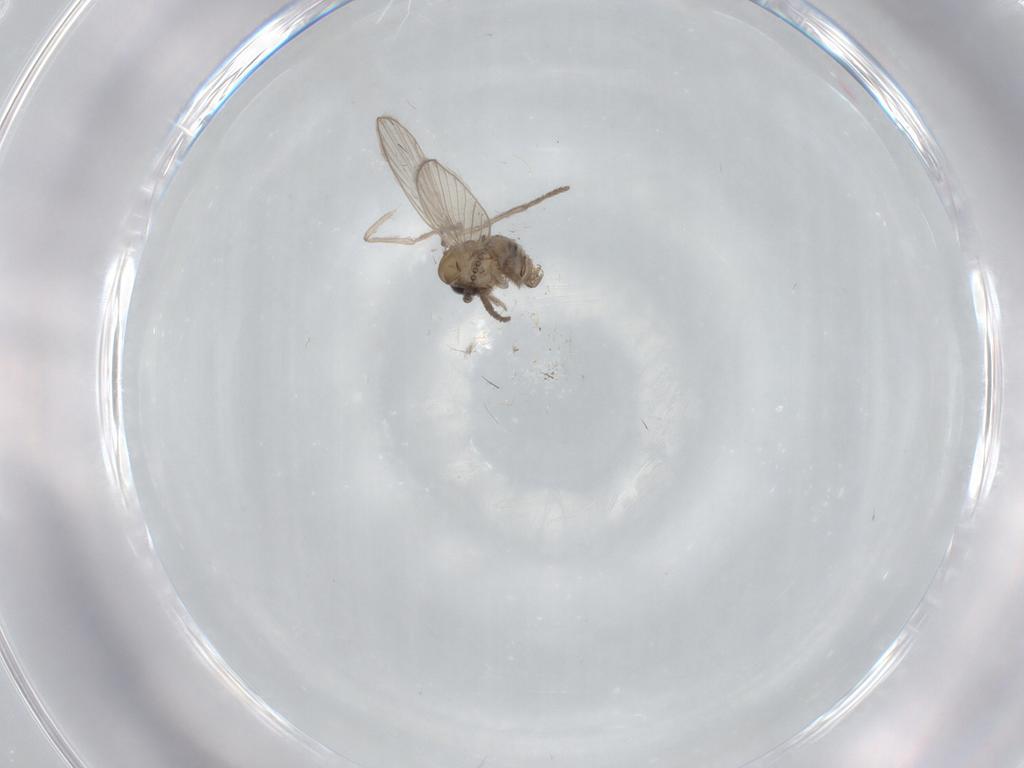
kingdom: Animalia
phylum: Arthropoda
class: Insecta
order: Diptera
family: Psychodidae
